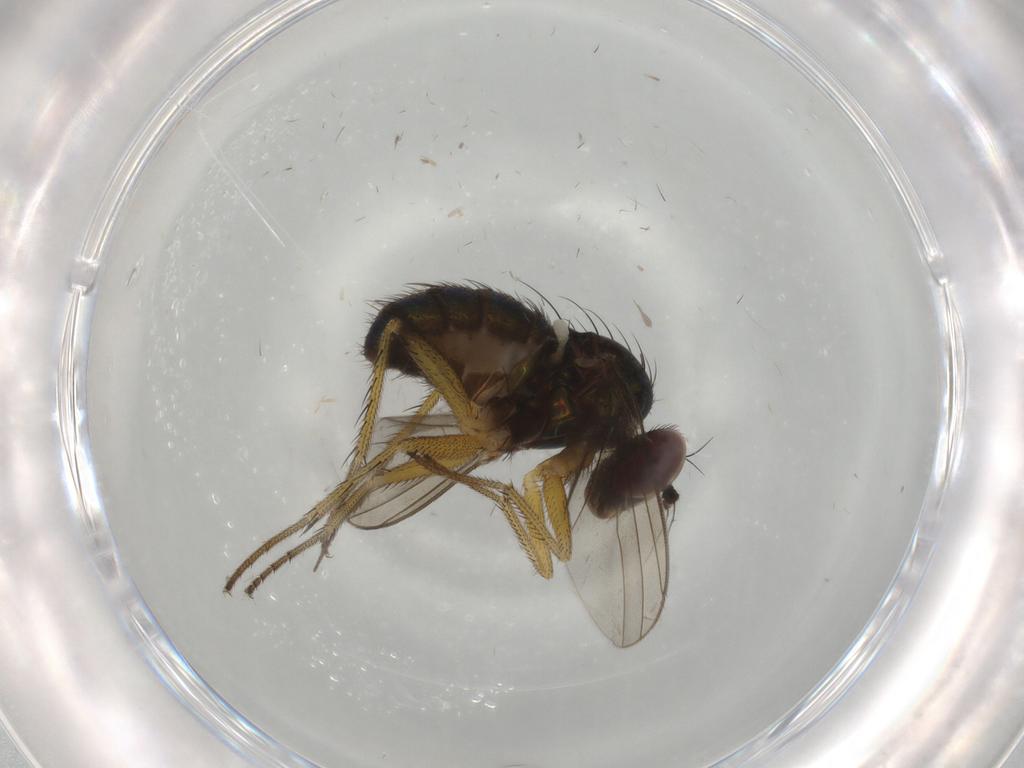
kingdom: Animalia
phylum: Arthropoda
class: Insecta
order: Diptera
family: Dolichopodidae
